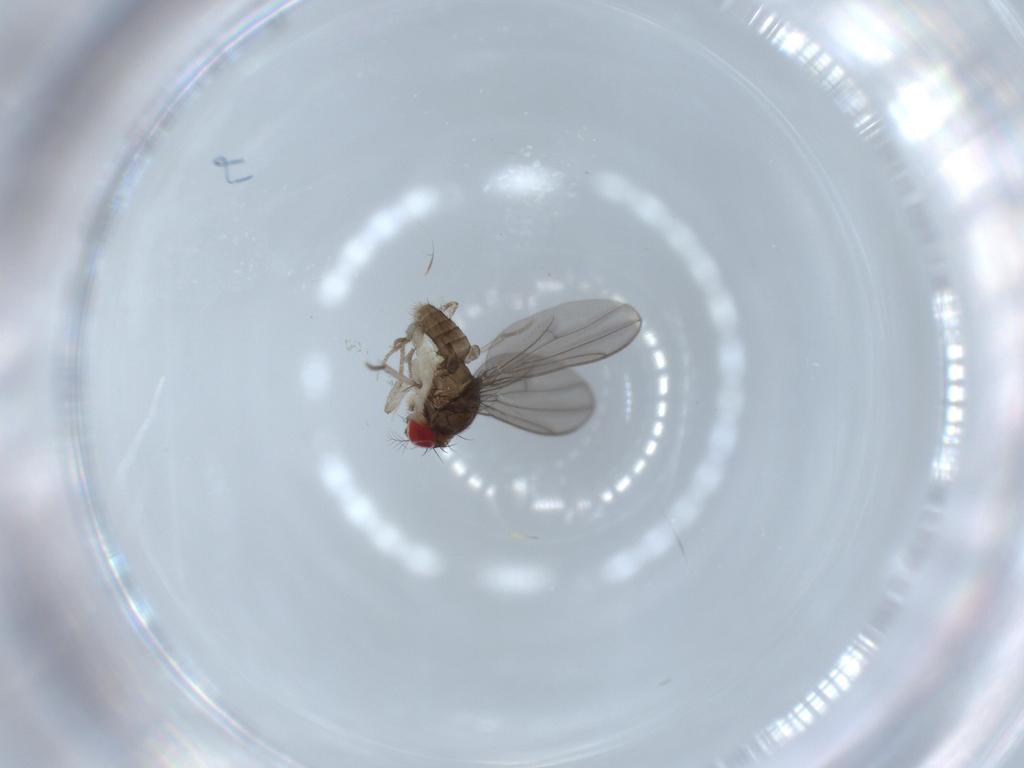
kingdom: Animalia
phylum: Arthropoda
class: Insecta
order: Diptera
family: Drosophilidae
